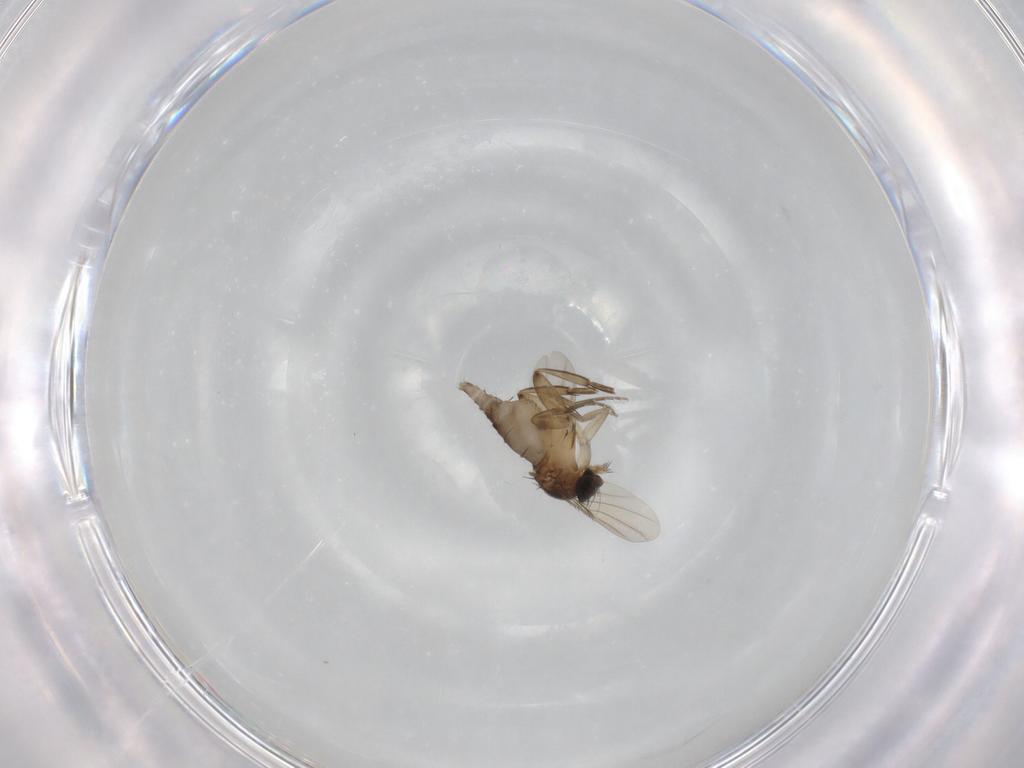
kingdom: Animalia
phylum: Arthropoda
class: Insecta
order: Diptera
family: Phoridae
